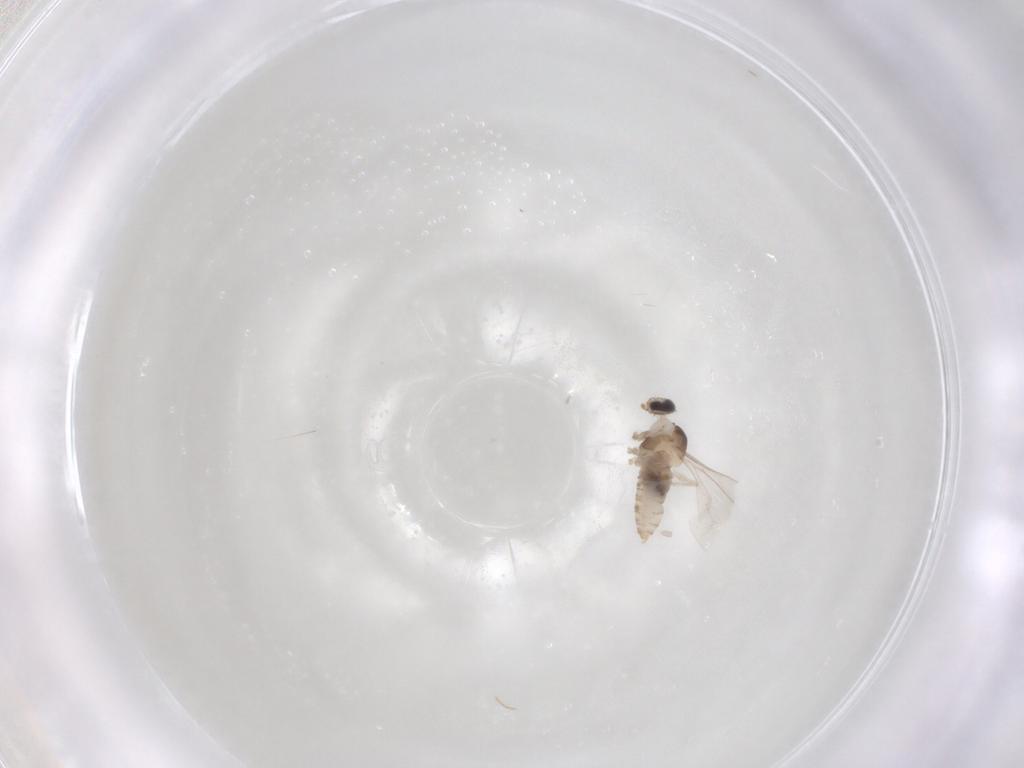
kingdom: Animalia
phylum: Arthropoda
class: Insecta
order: Diptera
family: Cecidomyiidae
